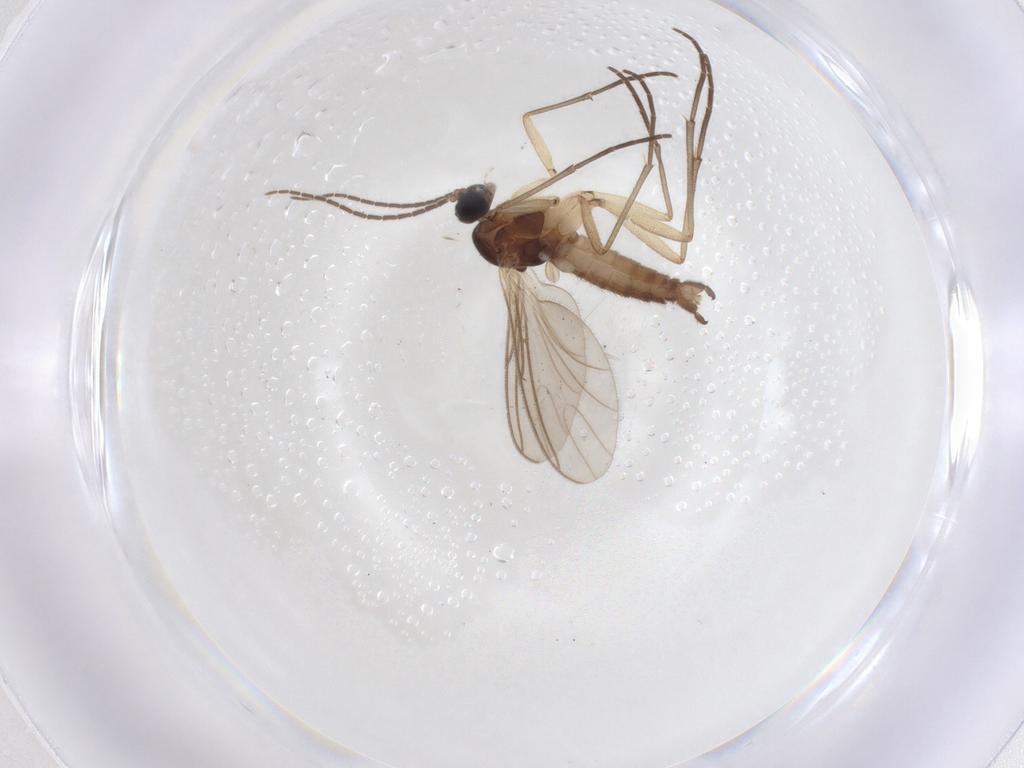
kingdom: Animalia
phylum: Arthropoda
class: Insecta
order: Diptera
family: Sciaridae
